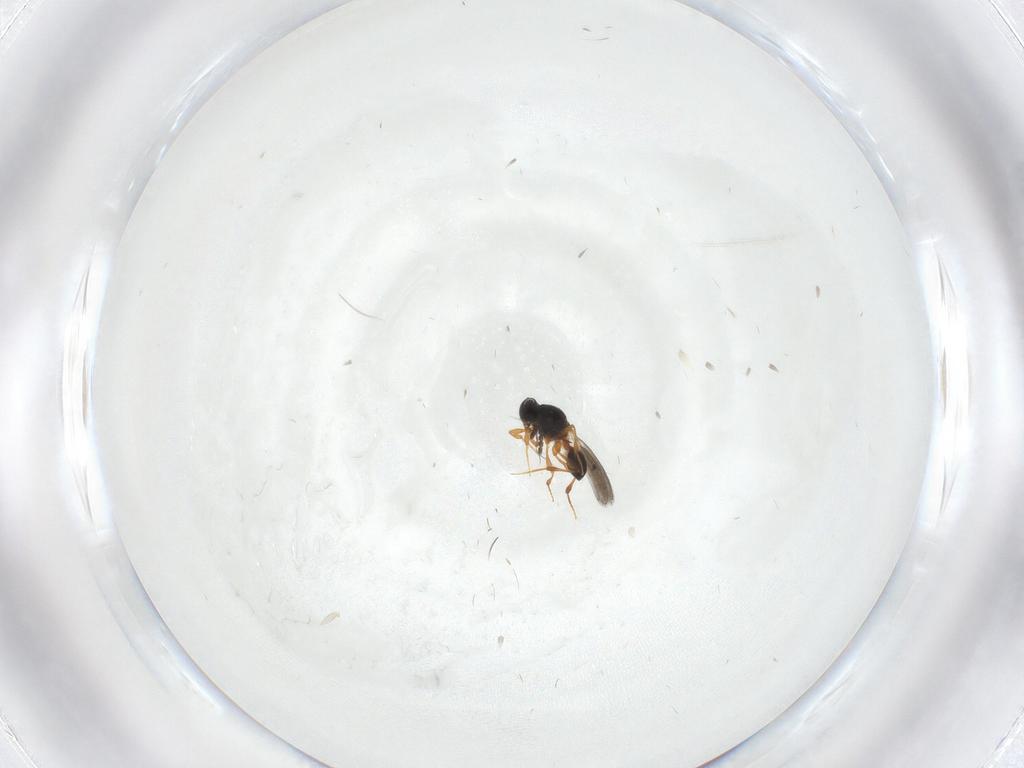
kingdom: Animalia
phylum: Arthropoda
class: Insecta
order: Hymenoptera
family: Platygastridae
